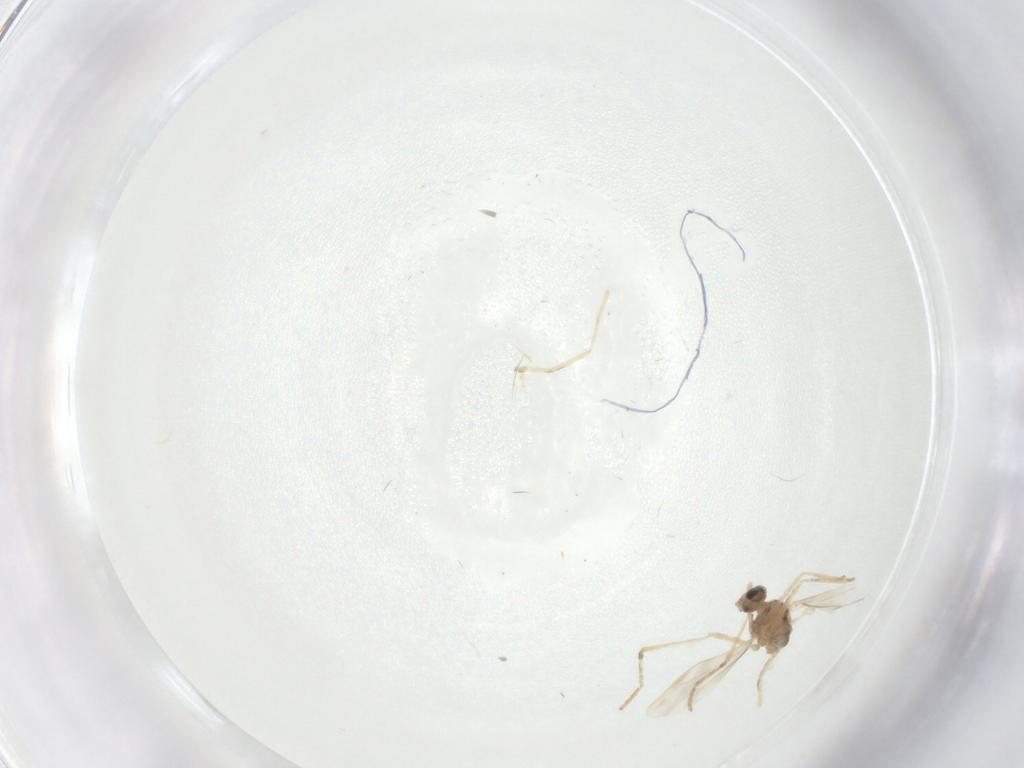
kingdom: Animalia
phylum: Arthropoda
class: Insecta
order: Diptera
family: Cecidomyiidae
